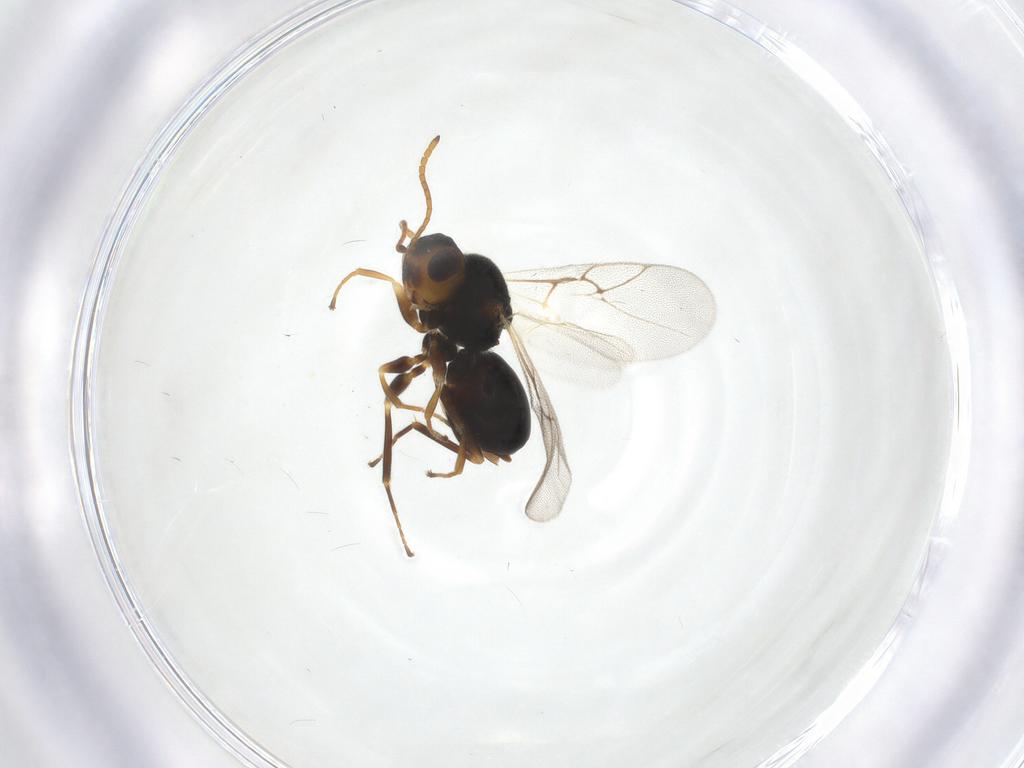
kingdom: Animalia
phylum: Arthropoda
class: Insecta
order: Hymenoptera
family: Cynipidae
